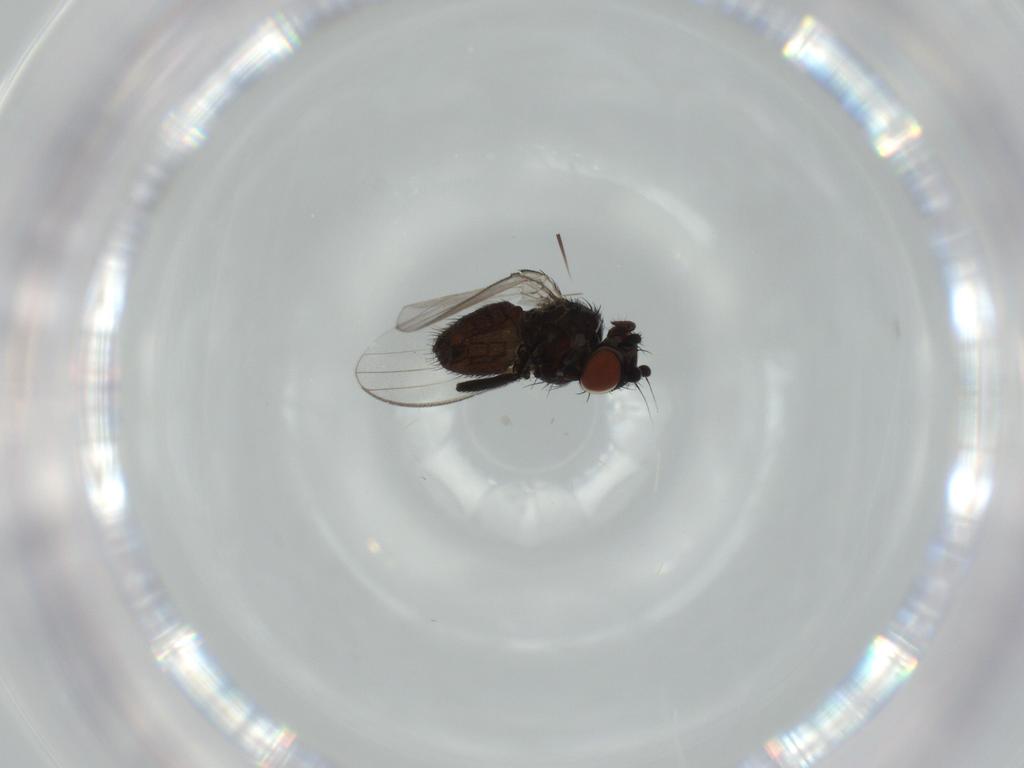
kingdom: Animalia
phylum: Arthropoda
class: Insecta
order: Diptera
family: Milichiidae
